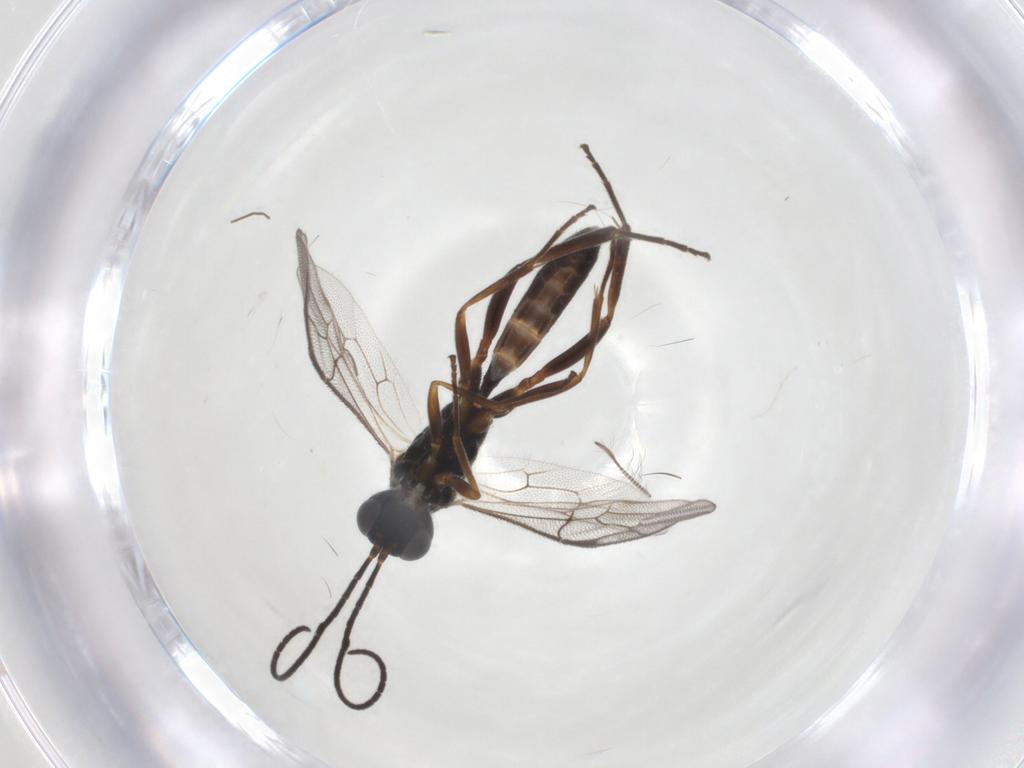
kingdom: Animalia
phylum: Arthropoda
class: Insecta
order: Hymenoptera
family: Ichneumonidae
